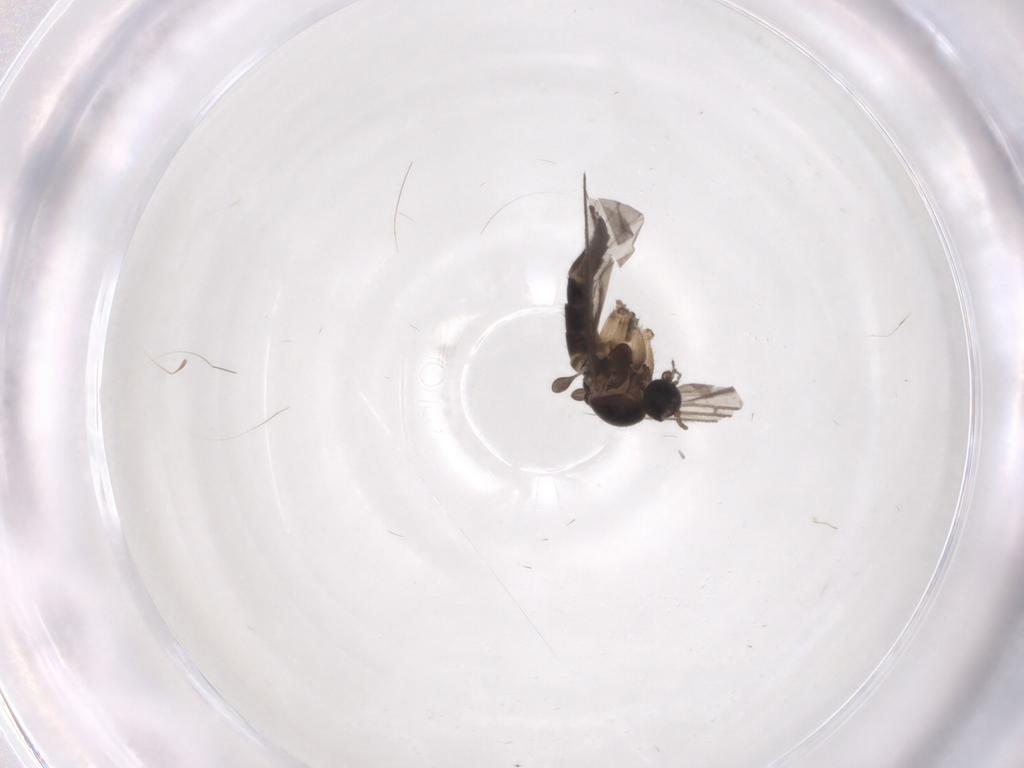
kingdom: Animalia
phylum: Arthropoda
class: Insecta
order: Diptera
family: Sciaridae
